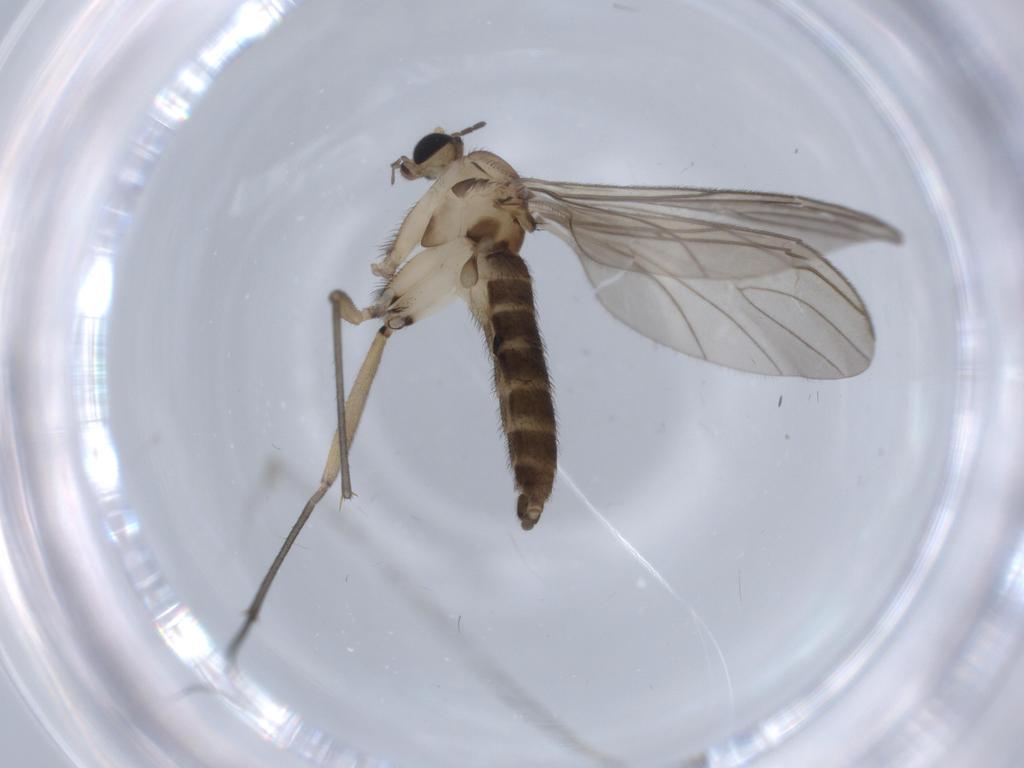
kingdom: Animalia
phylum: Arthropoda
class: Insecta
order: Diptera
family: Sciaridae
